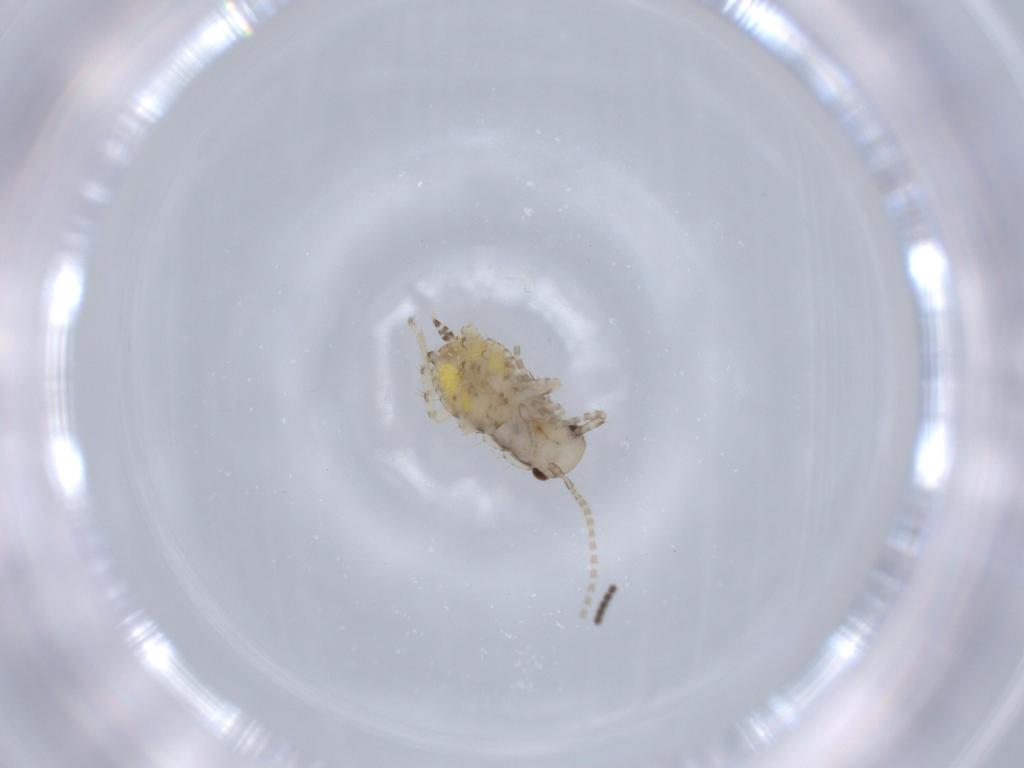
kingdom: Animalia
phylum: Arthropoda
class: Insecta
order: Blattodea
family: Ectobiidae
